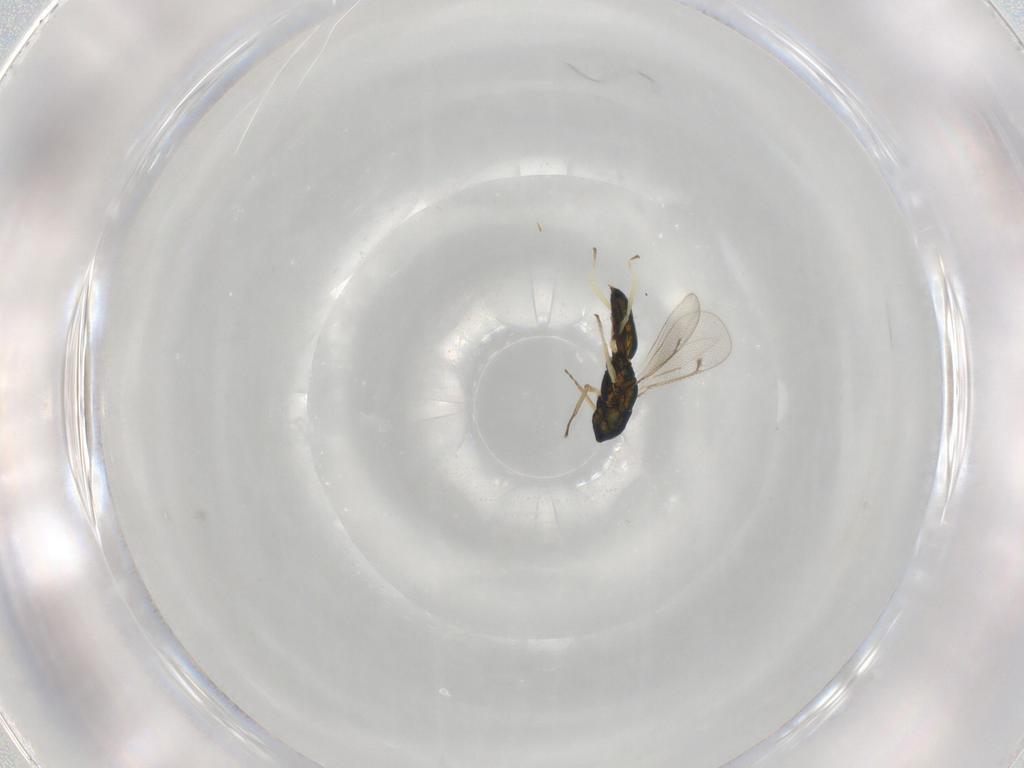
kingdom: Animalia
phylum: Arthropoda
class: Insecta
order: Hymenoptera
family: Eulophidae
